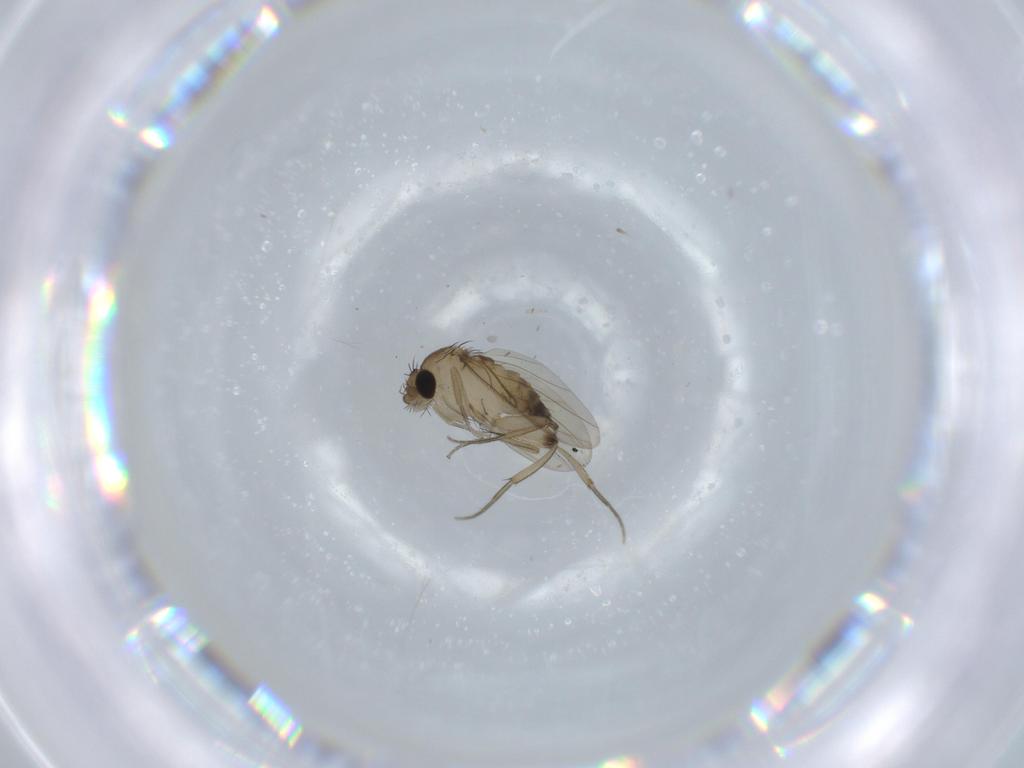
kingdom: Animalia
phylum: Arthropoda
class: Insecta
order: Diptera
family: Phoridae
